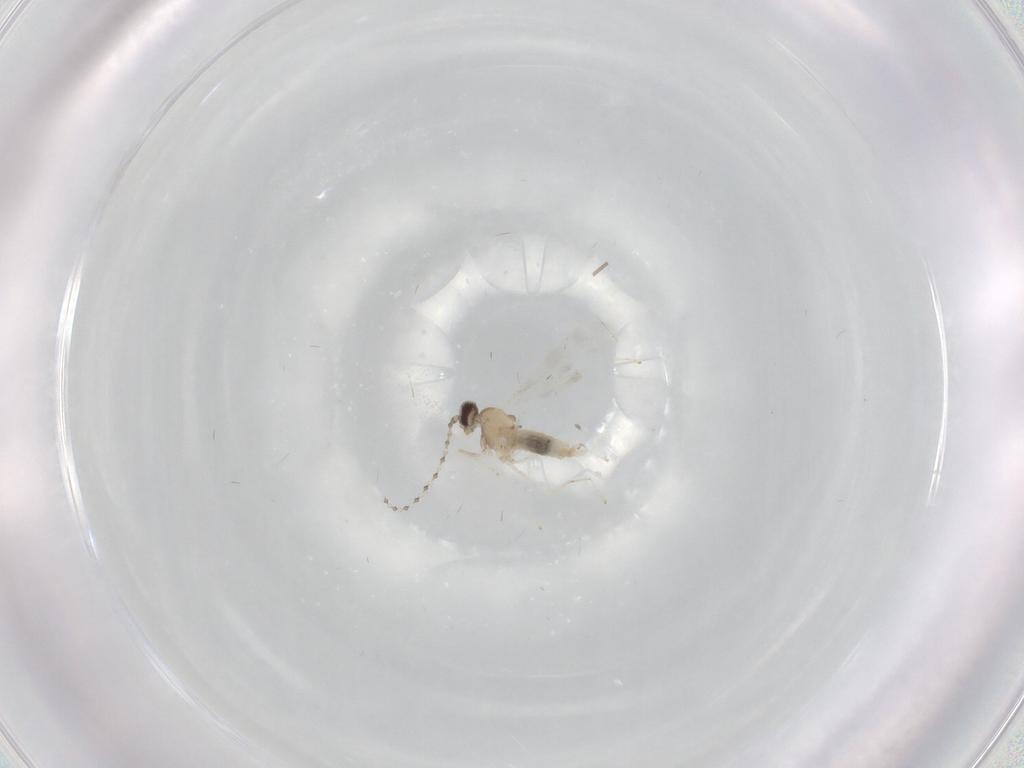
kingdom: Animalia
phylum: Arthropoda
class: Insecta
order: Diptera
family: Cecidomyiidae
